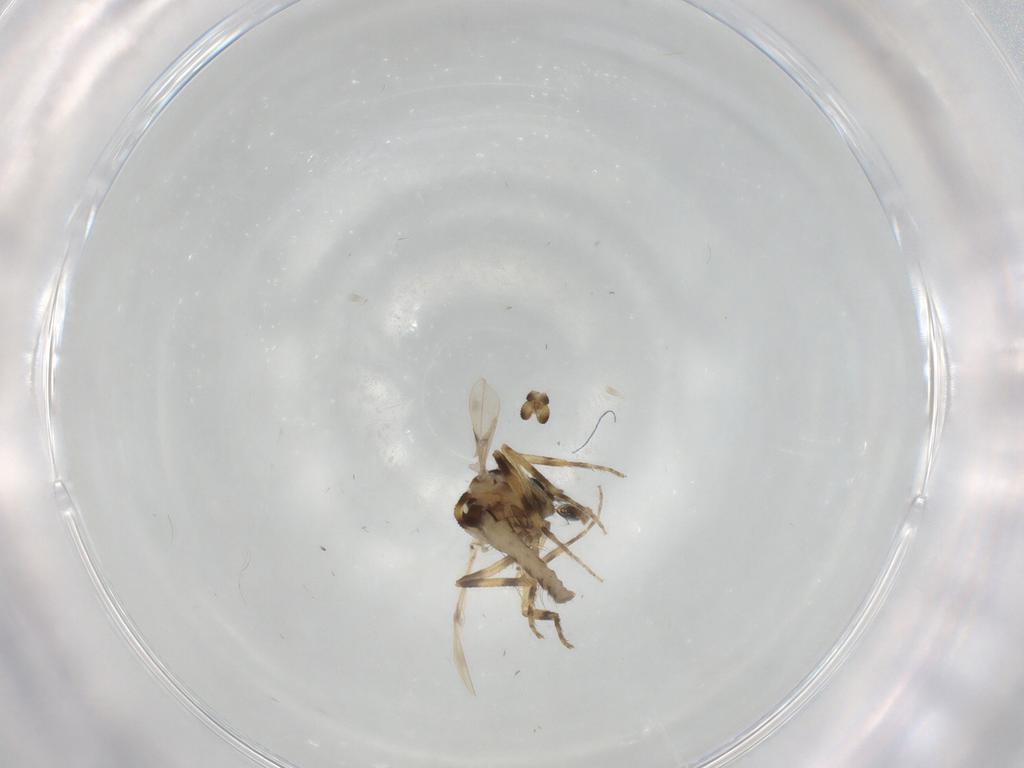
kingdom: Animalia
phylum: Arthropoda
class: Insecta
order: Diptera
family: Ceratopogonidae
